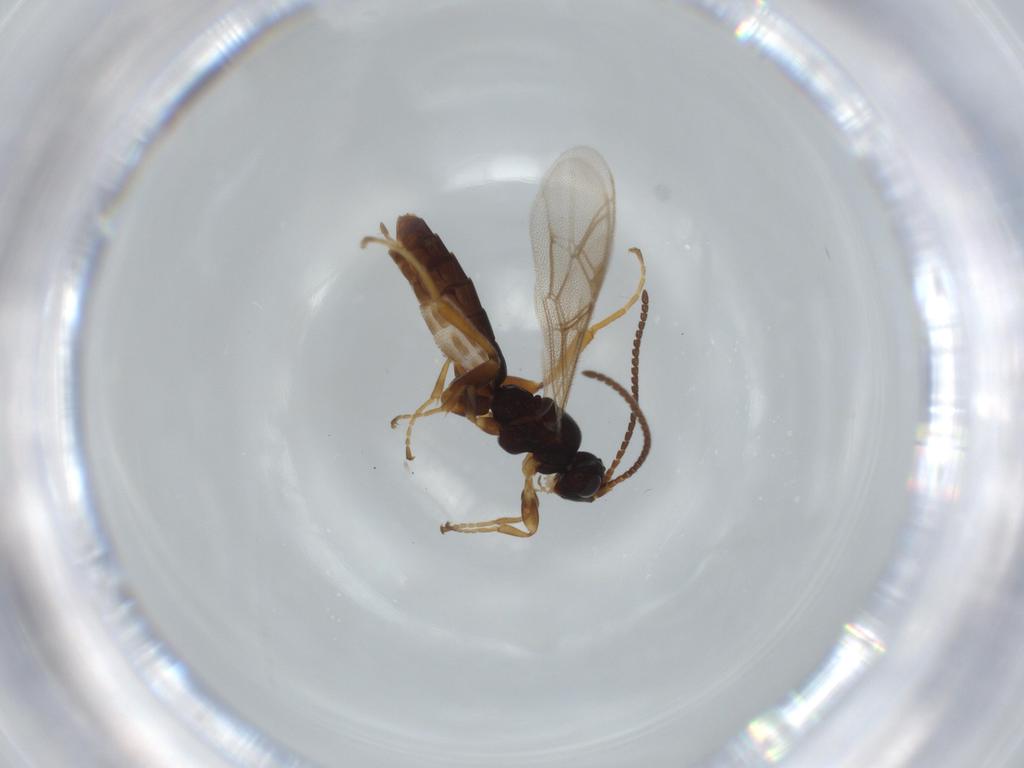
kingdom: Animalia
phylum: Arthropoda
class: Insecta
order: Hymenoptera
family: Ichneumonidae
